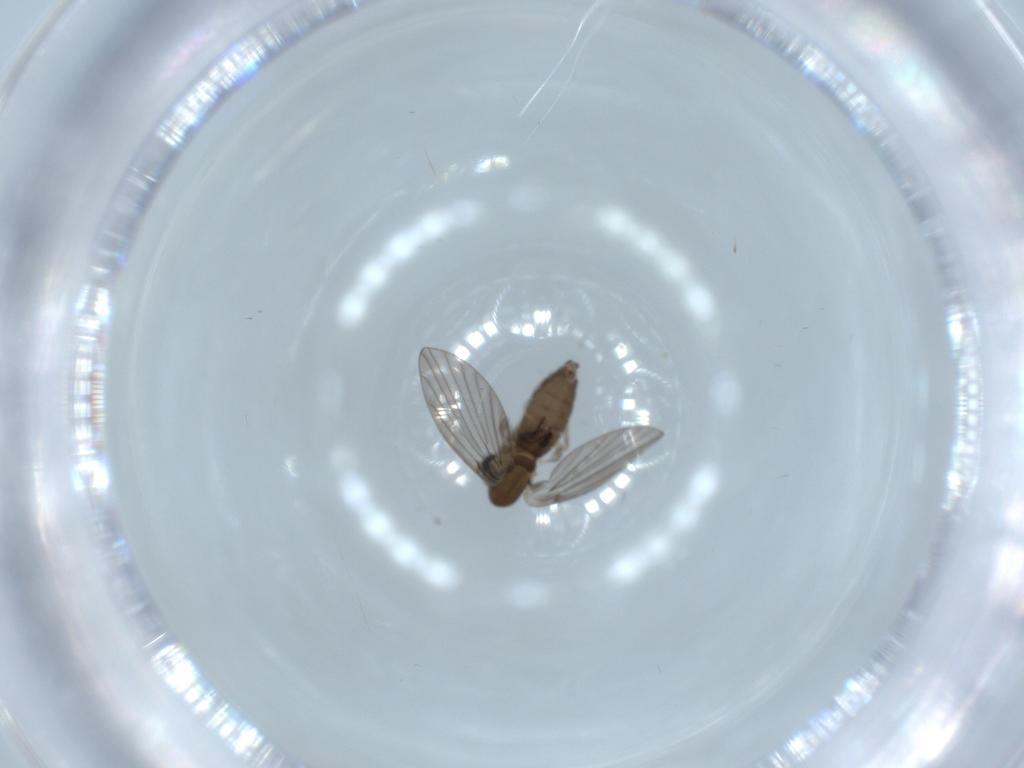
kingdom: Animalia
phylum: Arthropoda
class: Insecta
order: Diptera
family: Psychodidae
